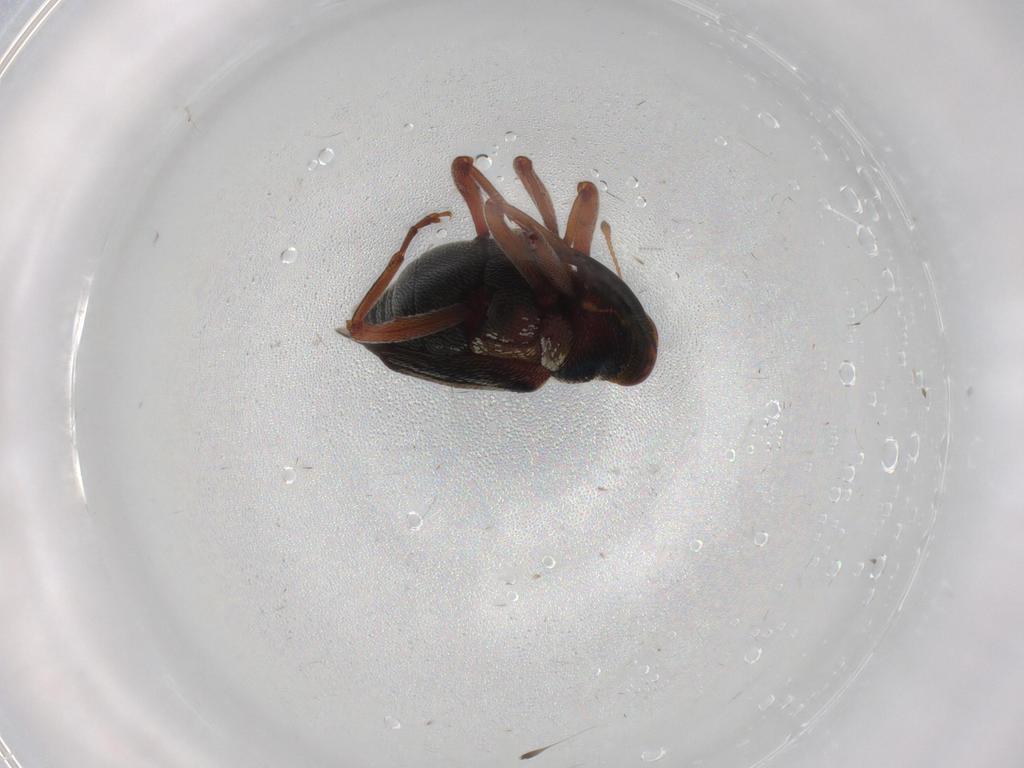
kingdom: Animalia
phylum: Arthropoda
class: Insecta
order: Coleoptera
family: Curculionidae
